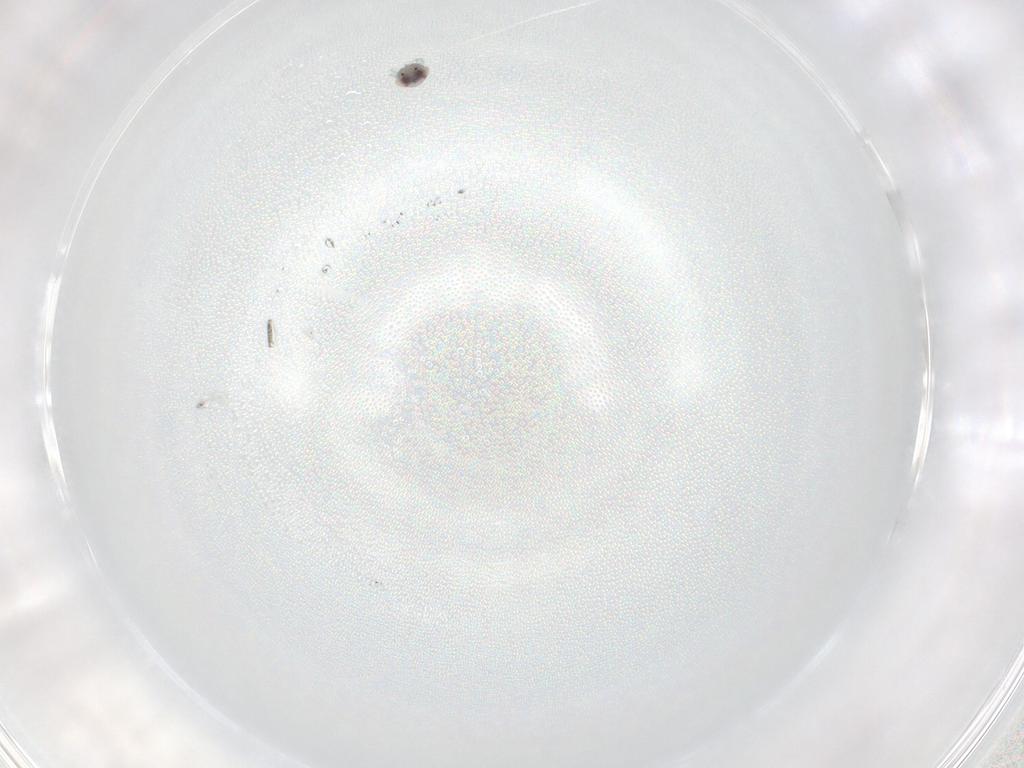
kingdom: Animalia
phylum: Arthropoda
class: Arachnida
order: Trombidiformes
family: Unionicolidae
